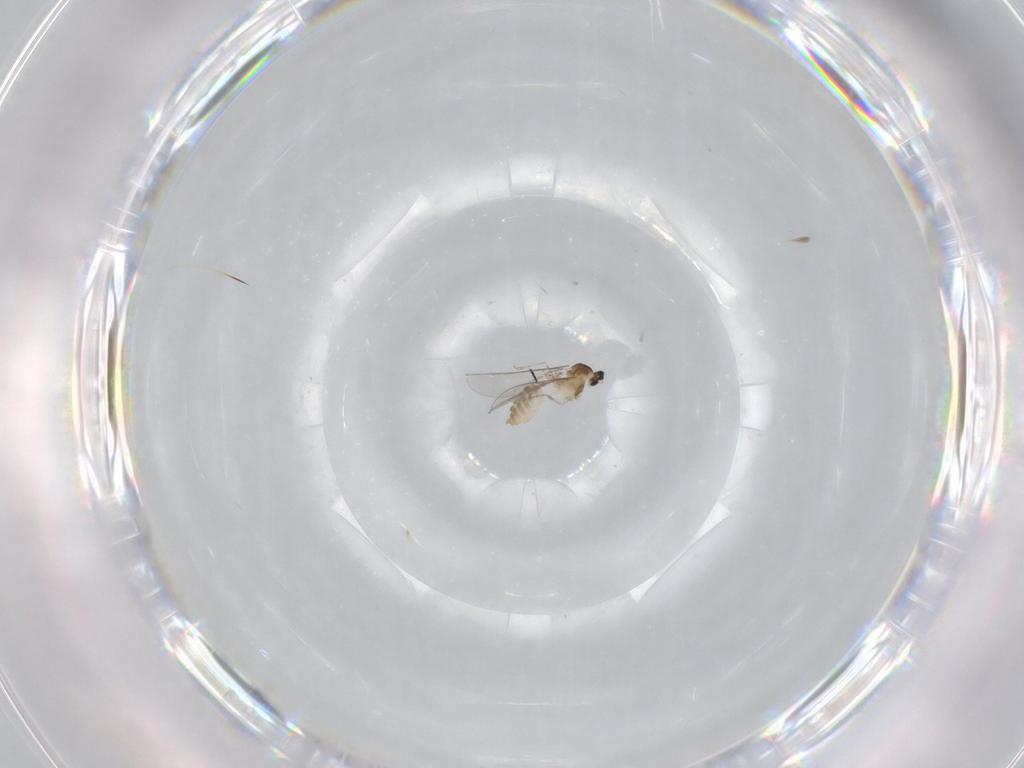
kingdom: Animalia
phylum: Arthropoda
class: Insecta
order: Diptera
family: Cecidomyiidae
